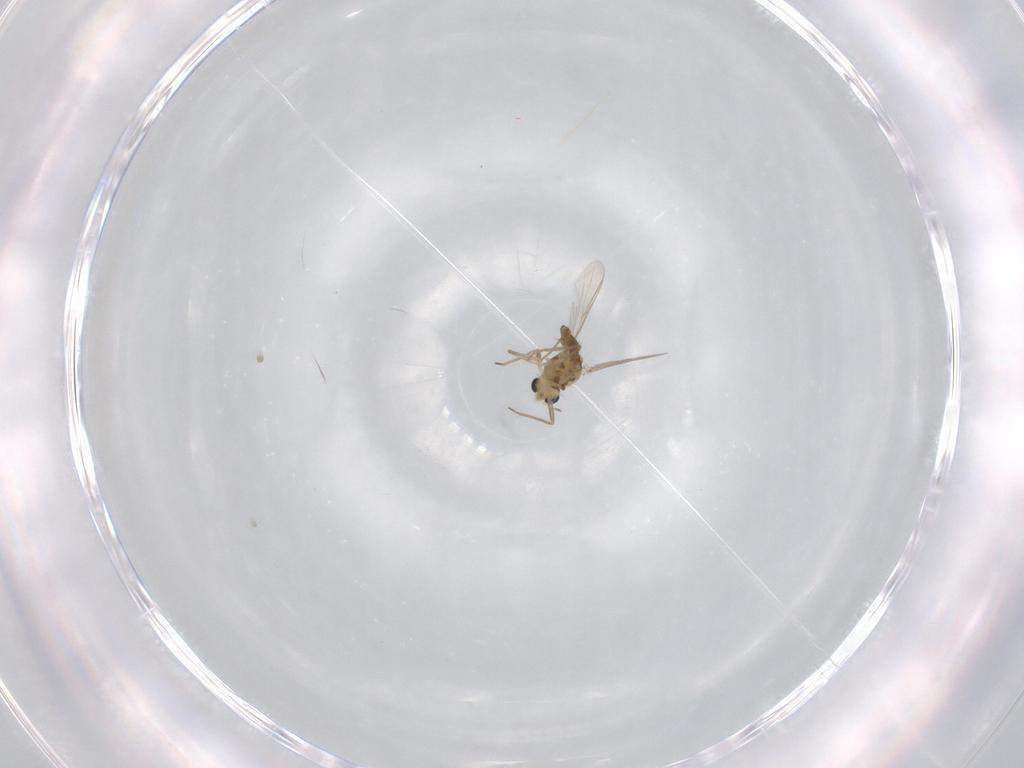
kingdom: Animalia
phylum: Arthropoda
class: Insecta
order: Diptera
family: Chironomidae
